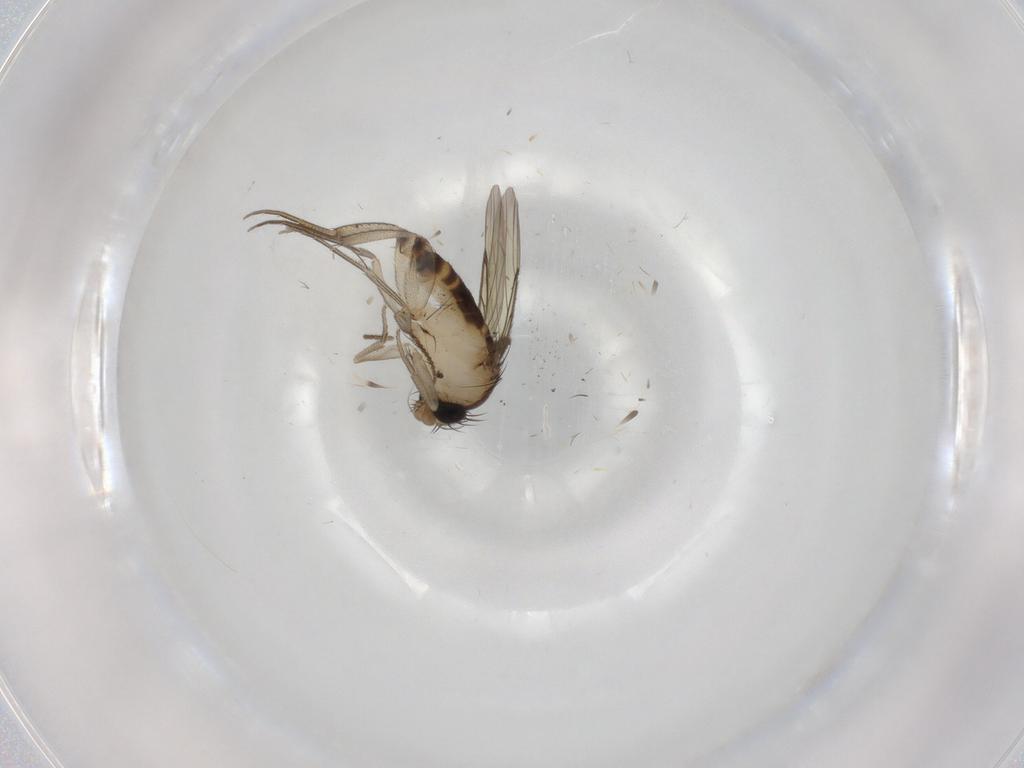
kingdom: Animalia
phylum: Arthropoda
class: Insecta
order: Diptera
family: Phoridae
